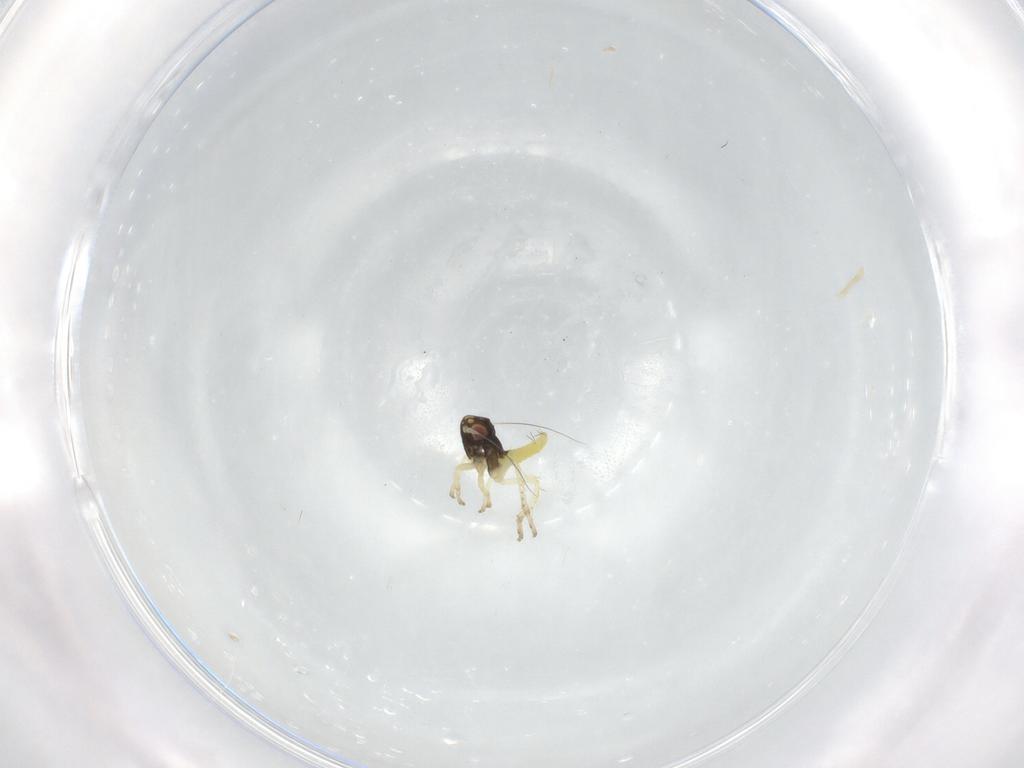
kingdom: Animalia
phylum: Arthropoda
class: Insecta
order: Hemiptera
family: Cicadellidae
